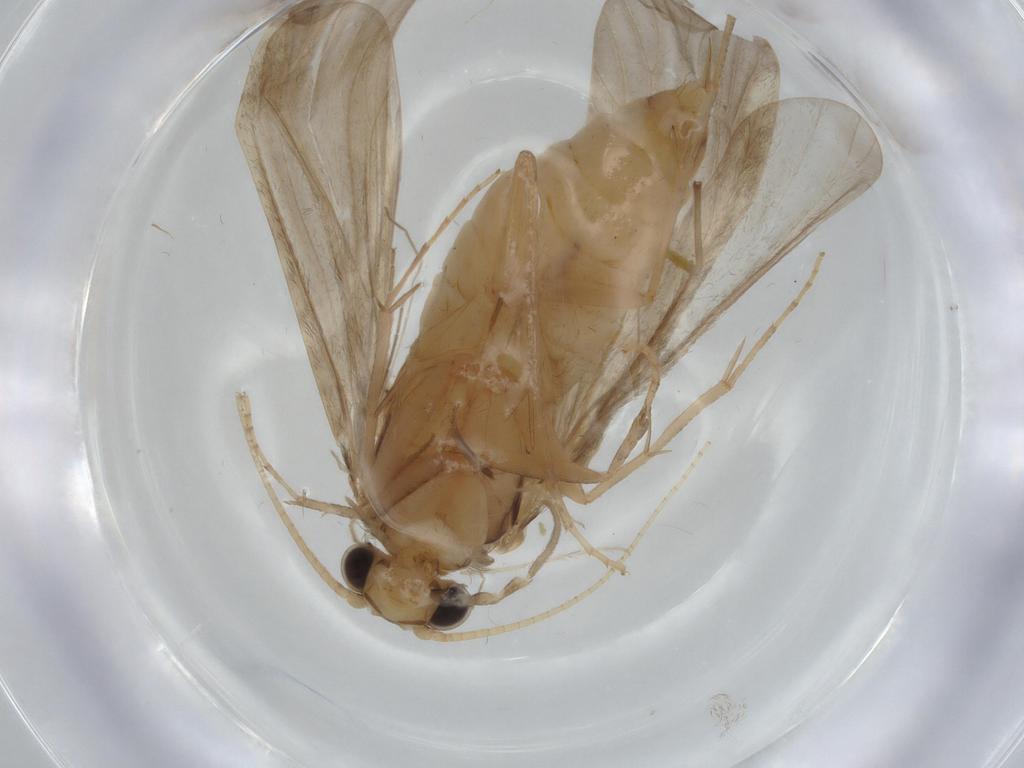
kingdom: Animalia
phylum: Arthropoda
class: Insecta
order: Trichoptera
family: Ecnomidae
